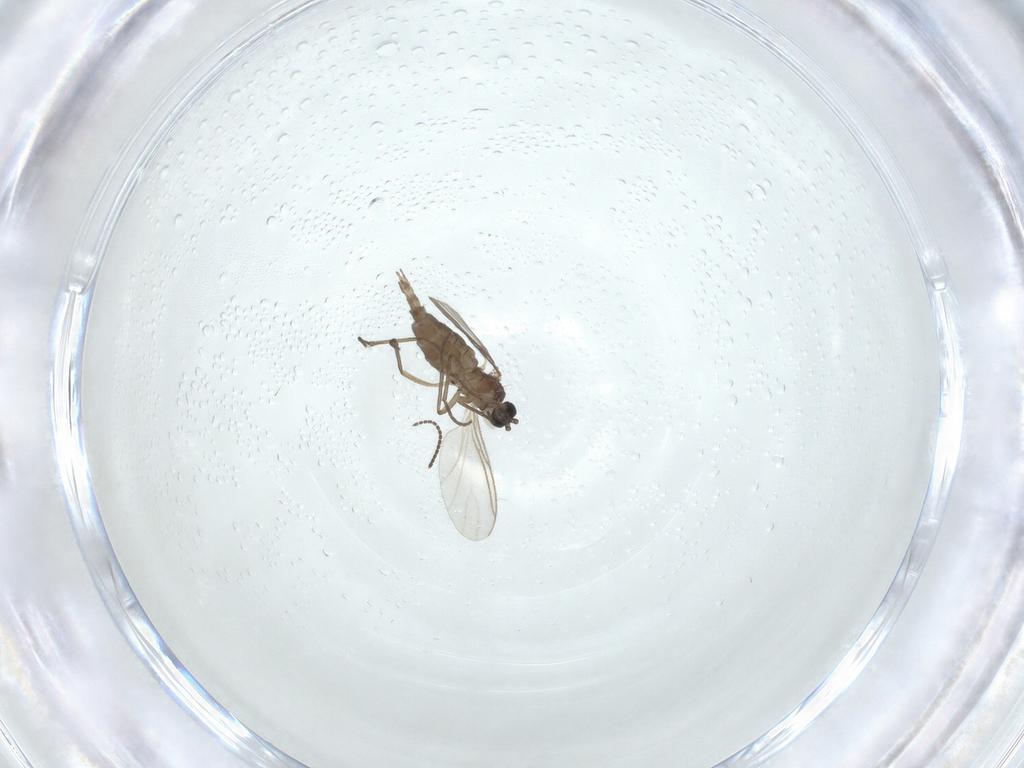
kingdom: Animalia
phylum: Arthropoda
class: Insecta
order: Diptera
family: Sciaridae
